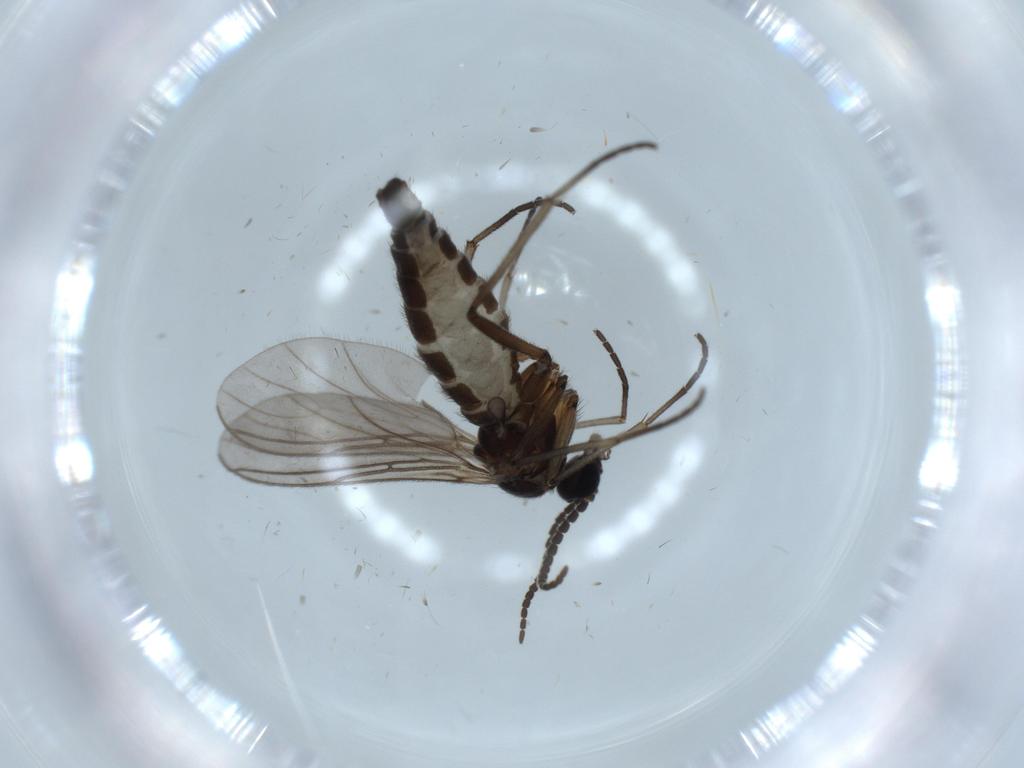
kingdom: Animalia
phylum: Arthropoda
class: Insecta
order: Diptera
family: Sciaridae
